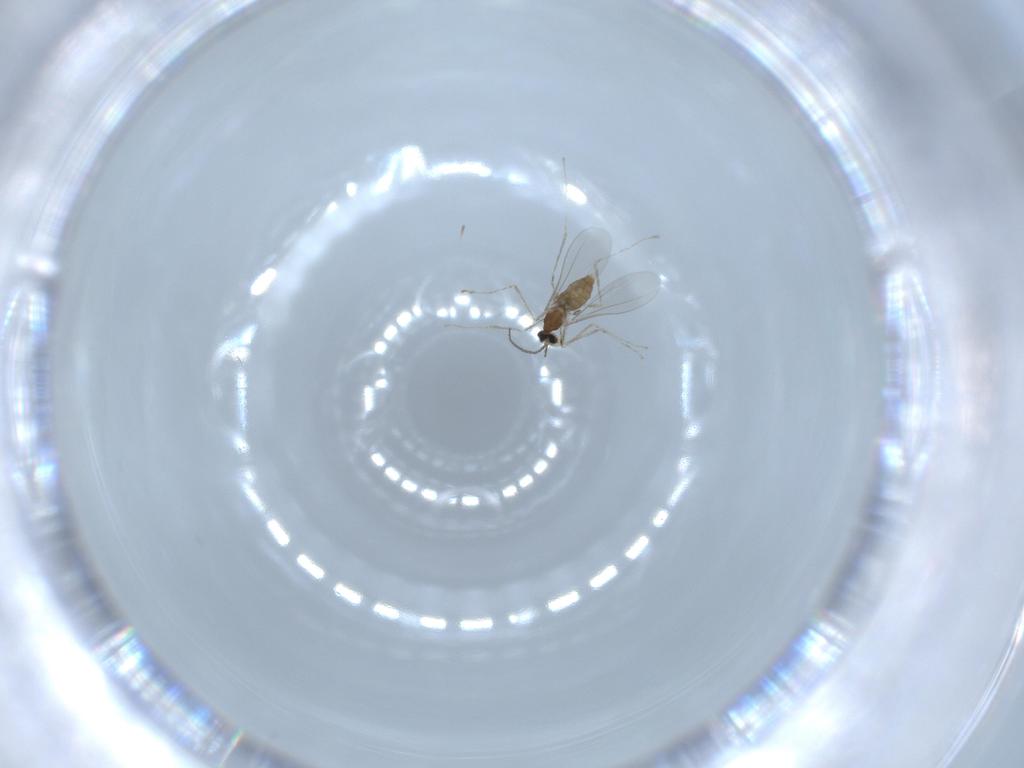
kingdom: Animalia
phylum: Arthropoda
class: Insecta
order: Diptera
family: Cecidomyiidae
